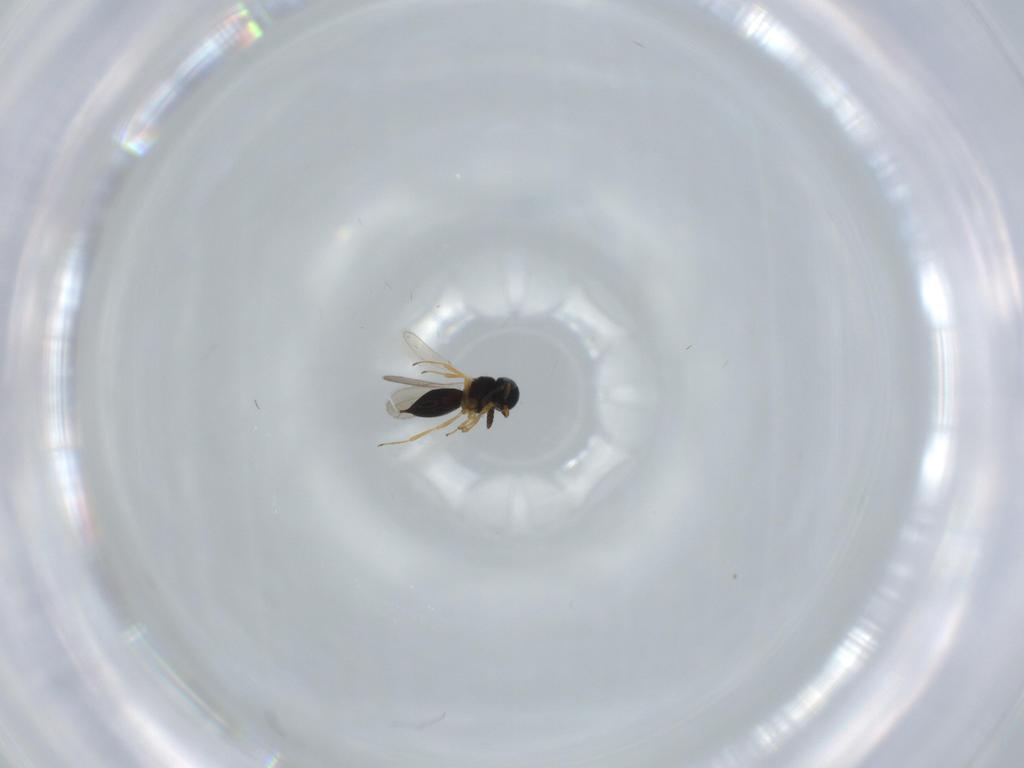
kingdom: Animalia
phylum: Arthropoda
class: Insecta
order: Hymenoptera
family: Scelionidae
